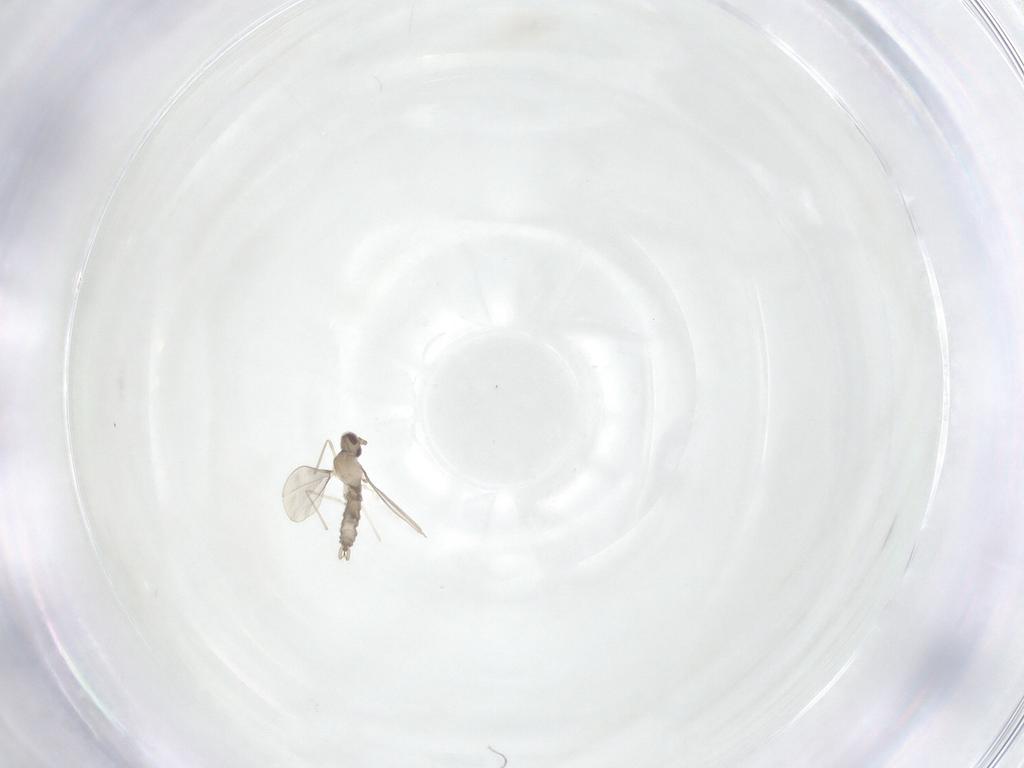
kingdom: Animalia
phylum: Arthropoda
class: Insecta
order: Diptera
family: Cecidomyiidae
